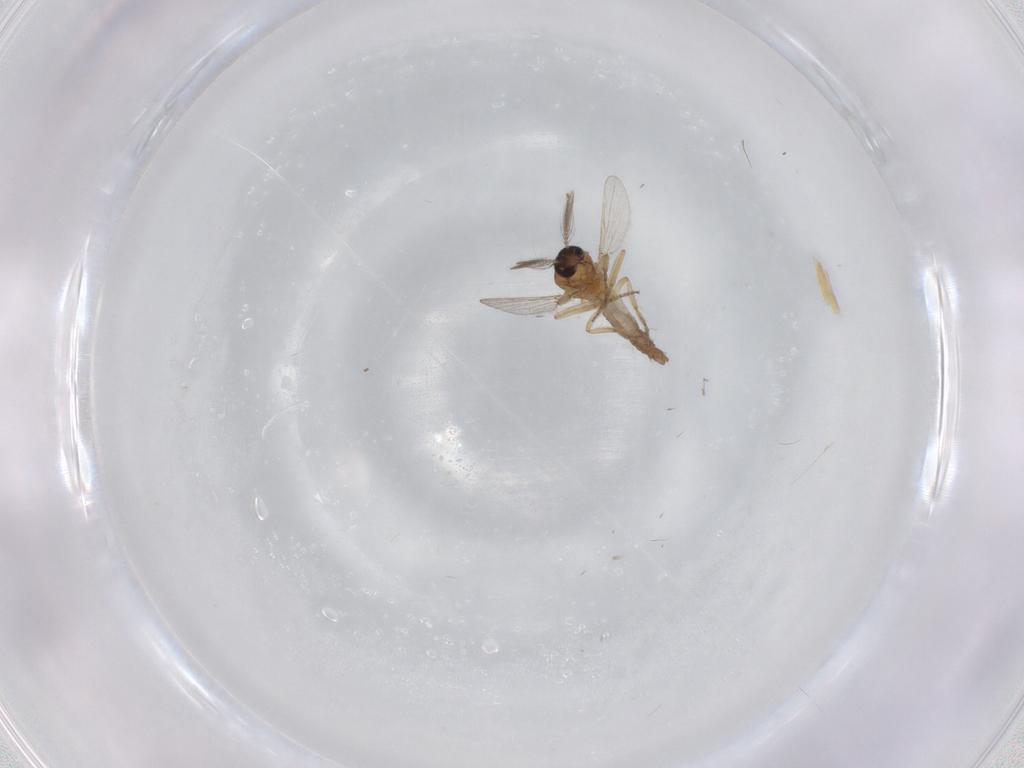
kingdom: Animalia
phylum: Arthropoda
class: Insecta
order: Diptera
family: Ceratopogonidae
